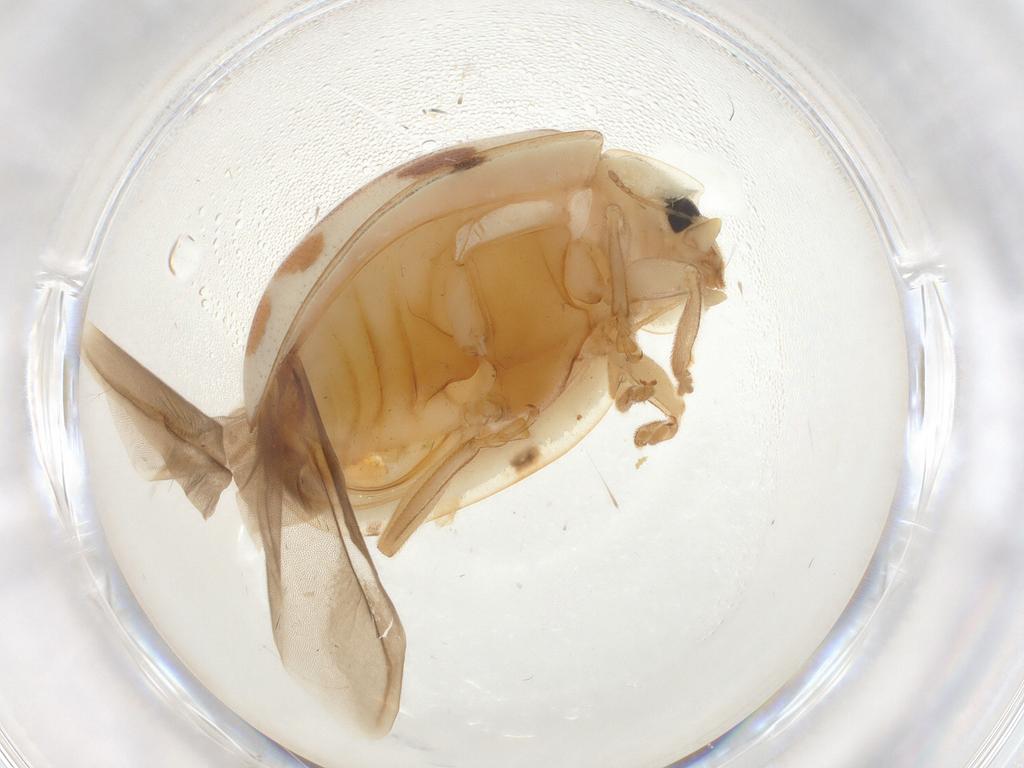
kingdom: Animalia
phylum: Arthropoda
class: Insecta
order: Coleoptera
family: Coccinellidae
